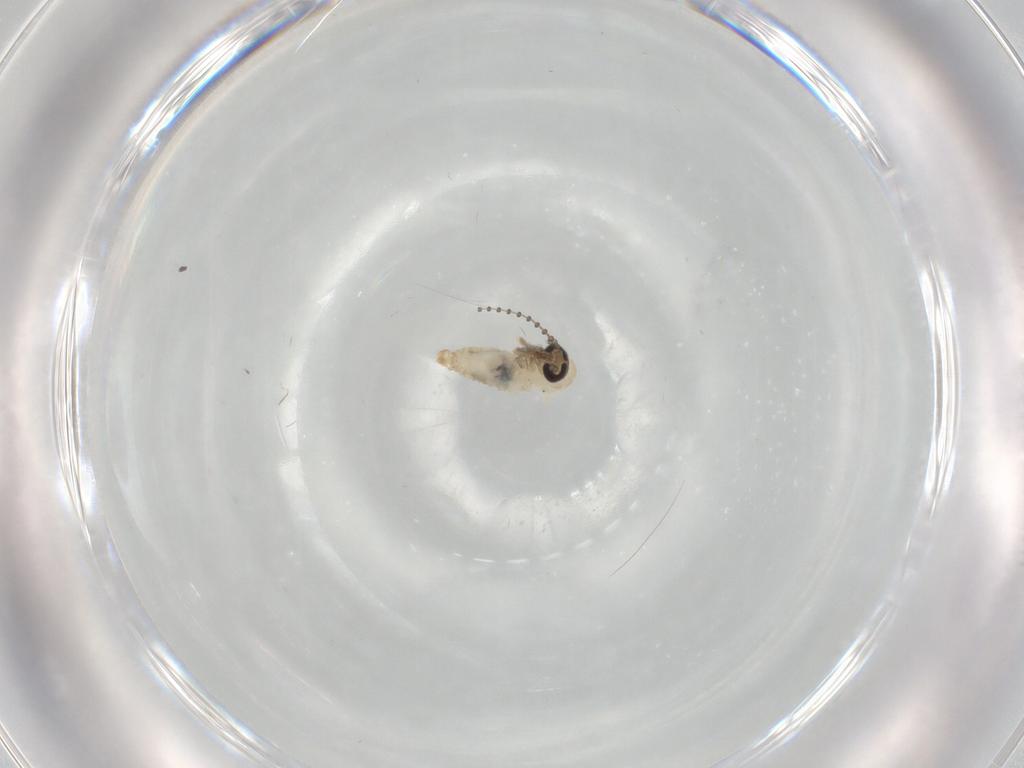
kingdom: Animalia
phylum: Arthropoda
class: Insecta
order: Diptera
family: Psychodidae
